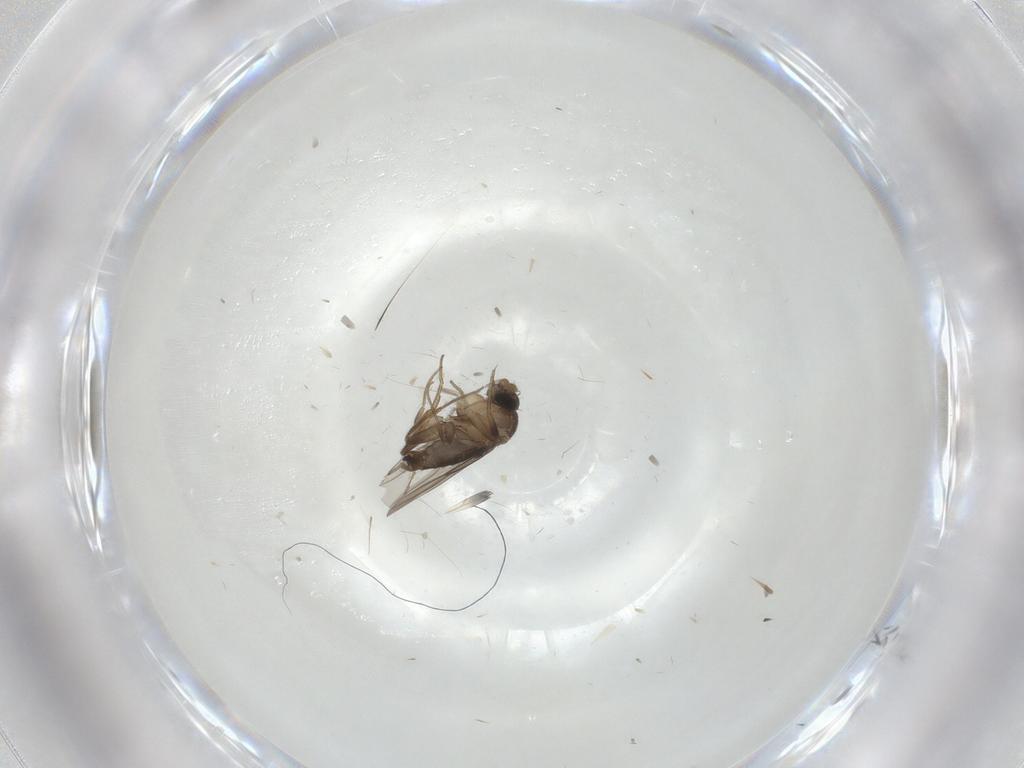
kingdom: Animalia
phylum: Arthropoda
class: Insecta
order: Diptera
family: Phoridae
